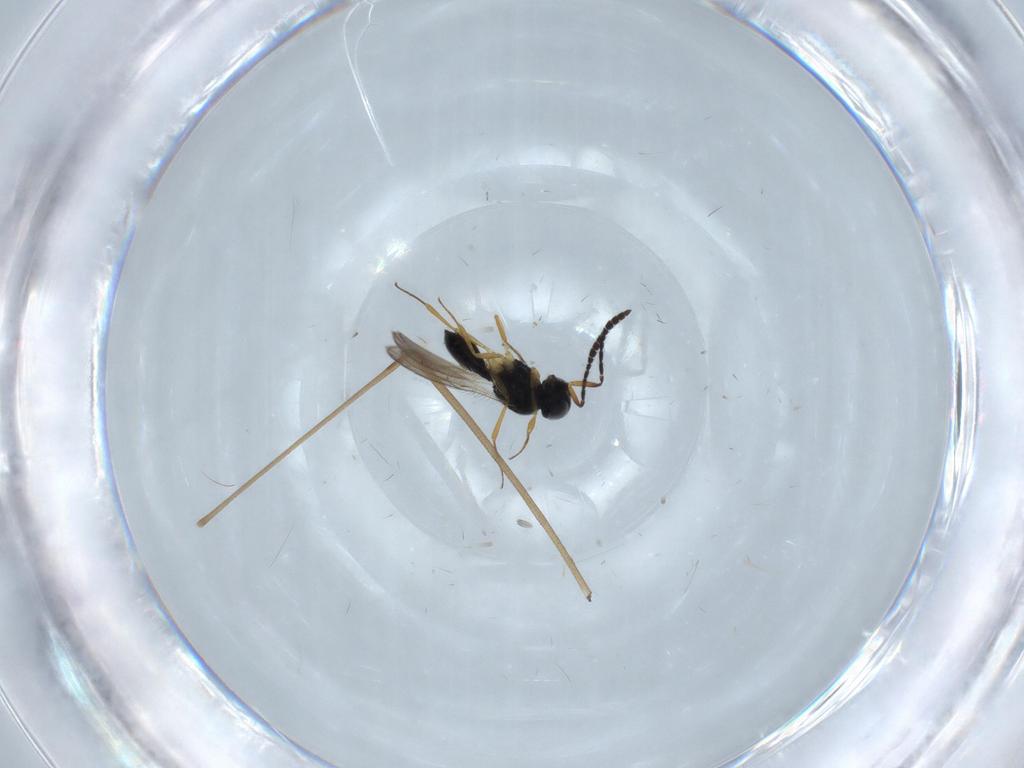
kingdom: Animalia
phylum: Arthropoda
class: Insecta
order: Hymenoptera
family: Scelionidae
